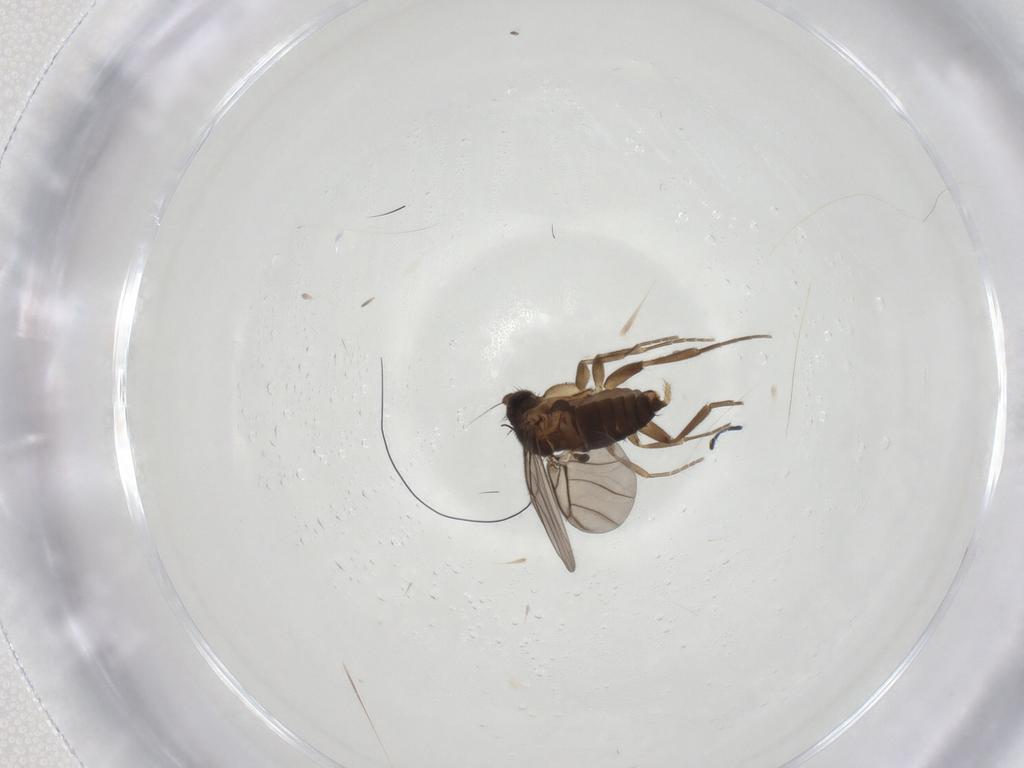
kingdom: Animalia
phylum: Arthropoda
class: Insecta
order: Diptera
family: Phoridae
